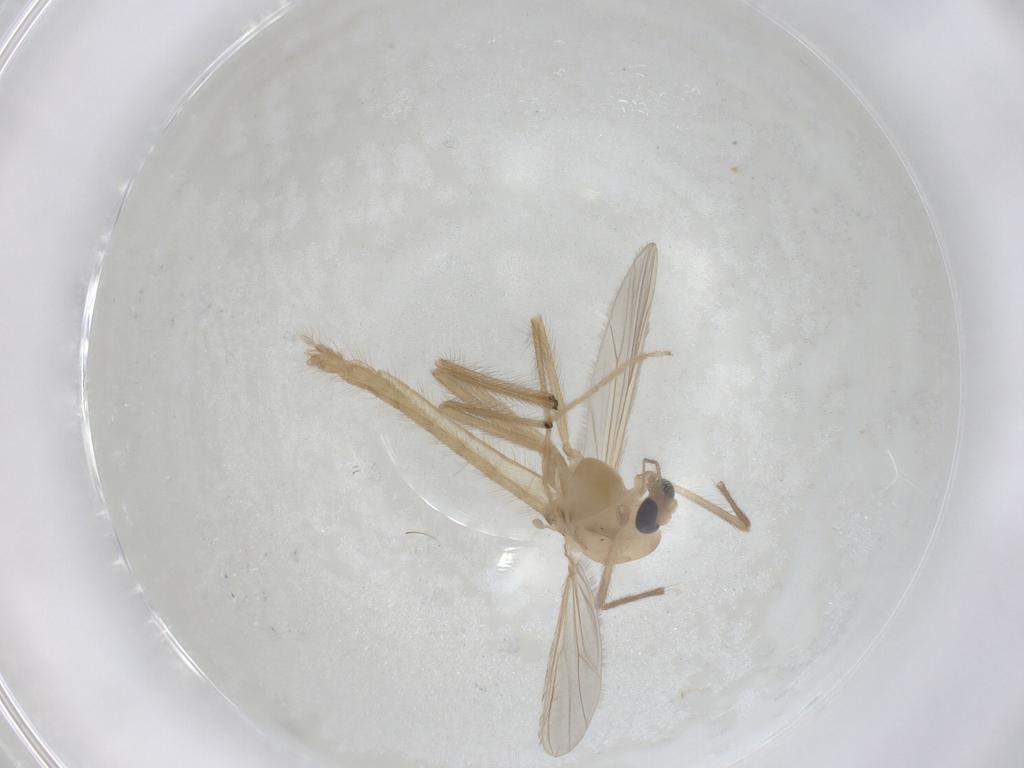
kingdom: Animalia
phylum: Arthropoda
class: Insecta
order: Diptera
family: Chironomidae
